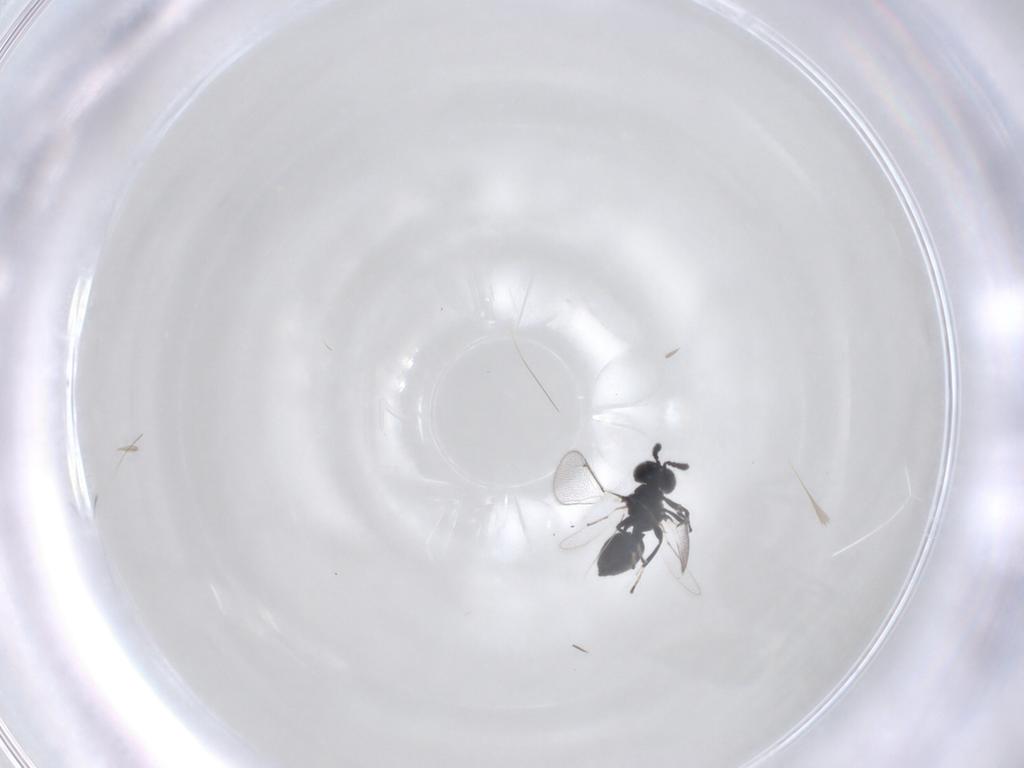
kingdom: Animalia
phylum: Arthropoda
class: Insecta
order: Hymenoptera
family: Eulophidae
